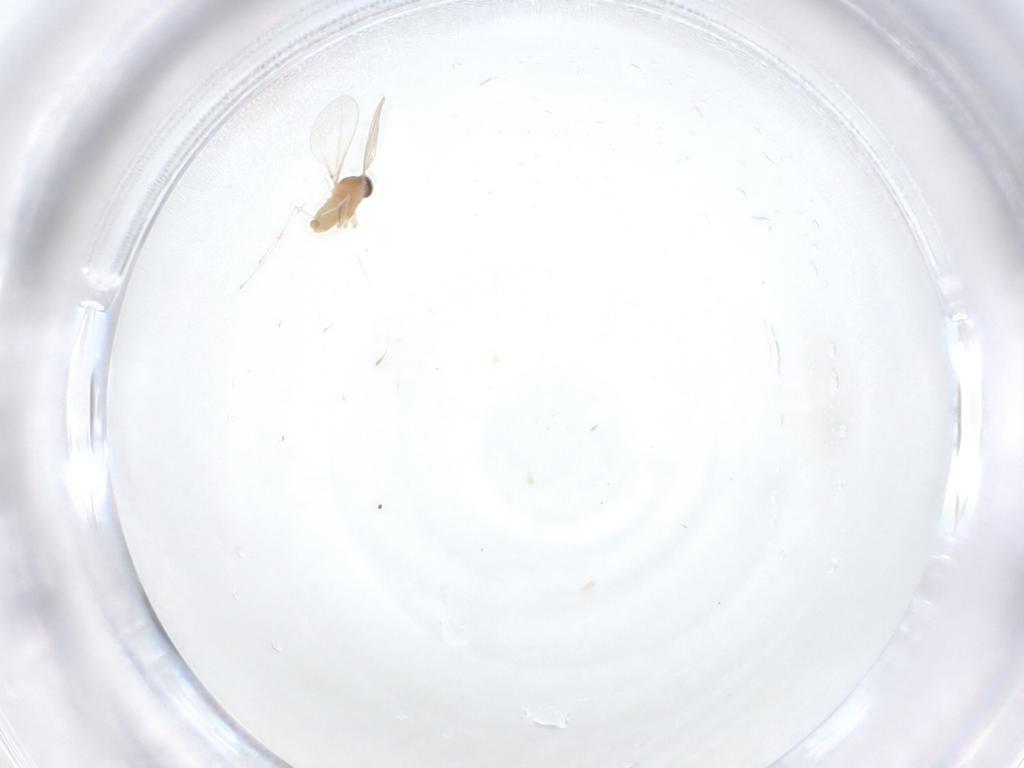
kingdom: Animalia
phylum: Arthropoda
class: Insecta
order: Diptera
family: Cecidomyiidae
